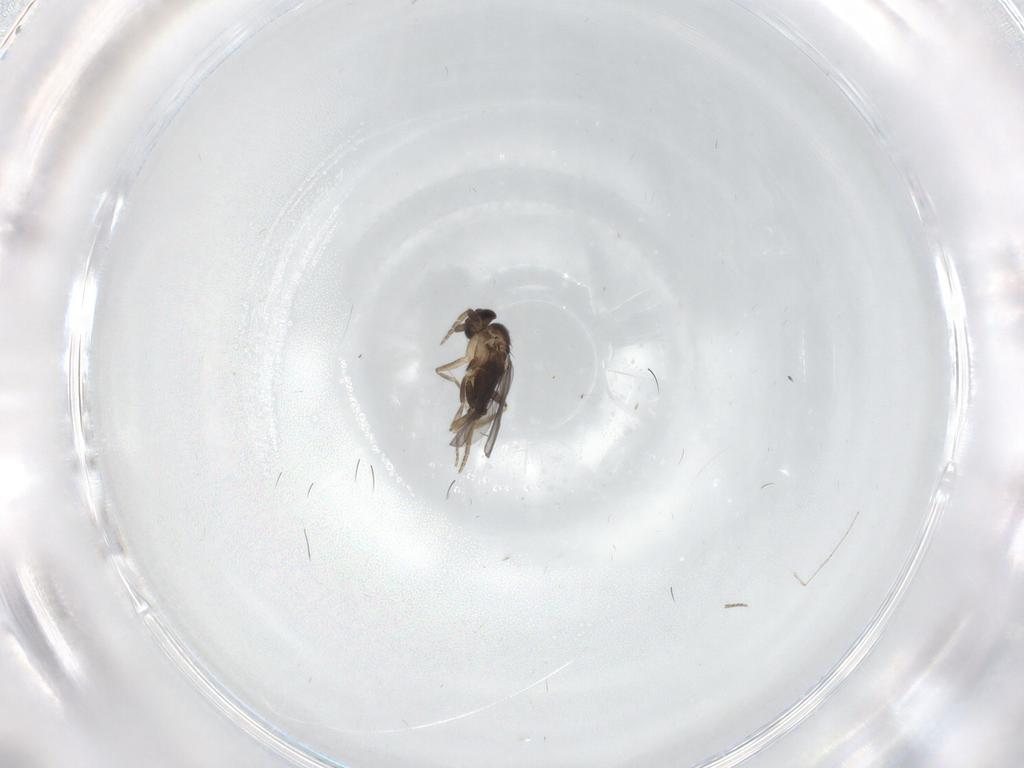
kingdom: Animalia
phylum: Arthropoda
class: Insecta
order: Diptera
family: Cecidomyiidae
